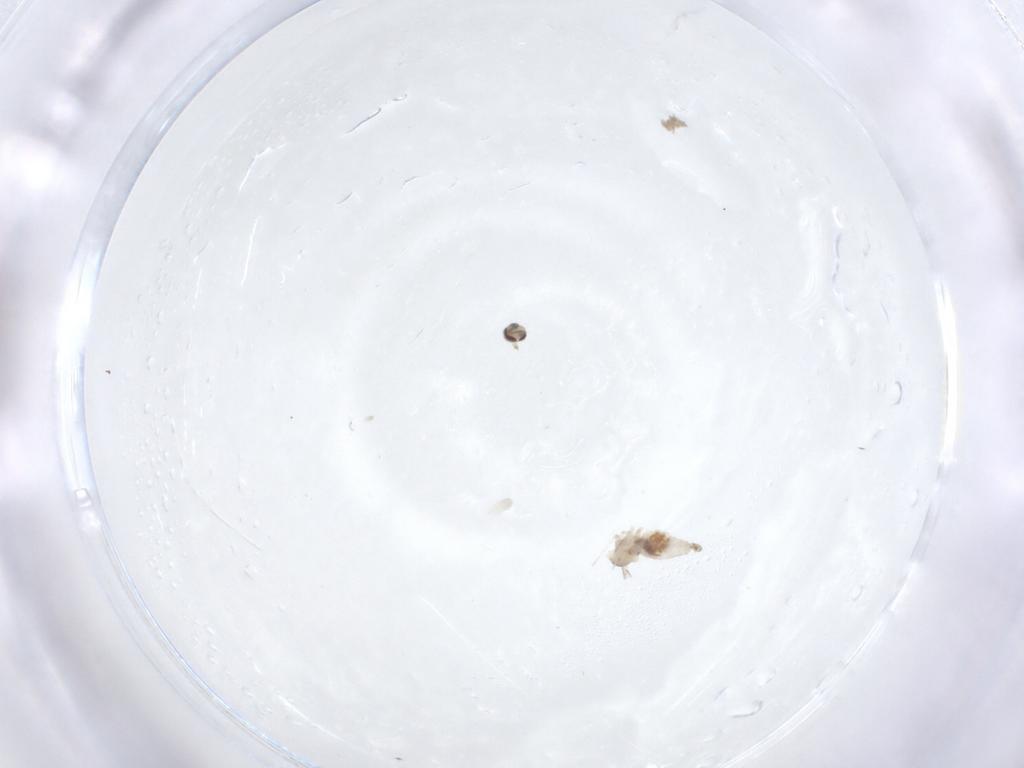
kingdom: Animalia
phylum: Arthropoda
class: Insecta
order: Diptera
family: Cecidomyiidae
